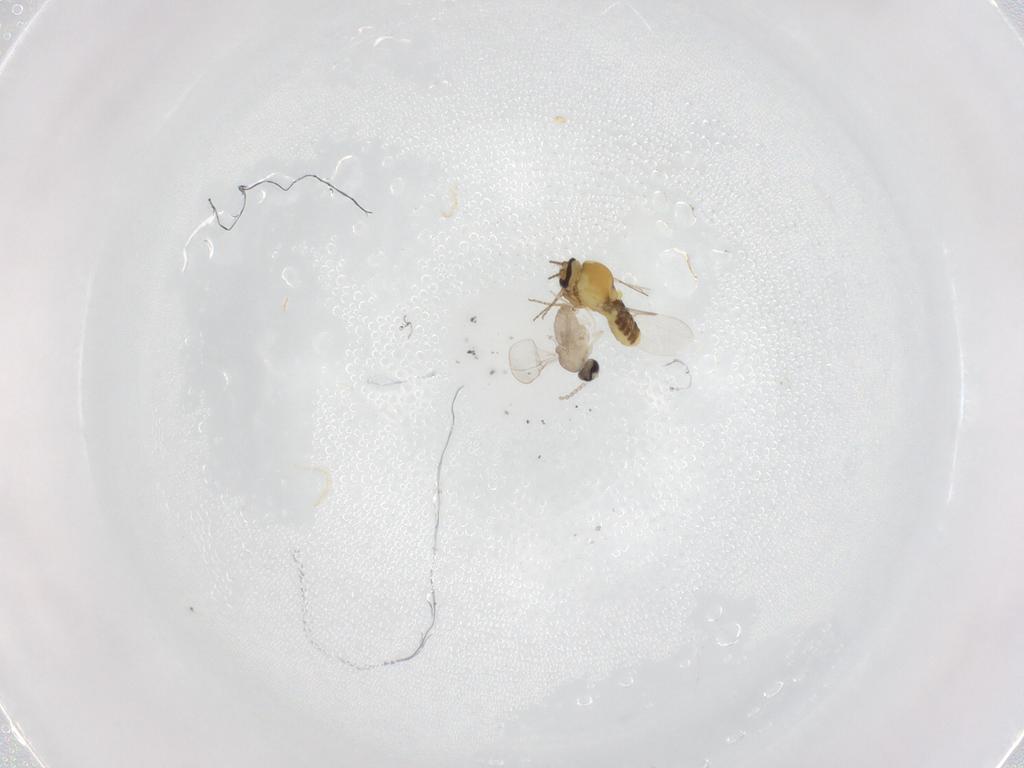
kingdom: Animalia
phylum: Arthropoda
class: Insecta
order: Diptera
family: Cecidomyiidae
